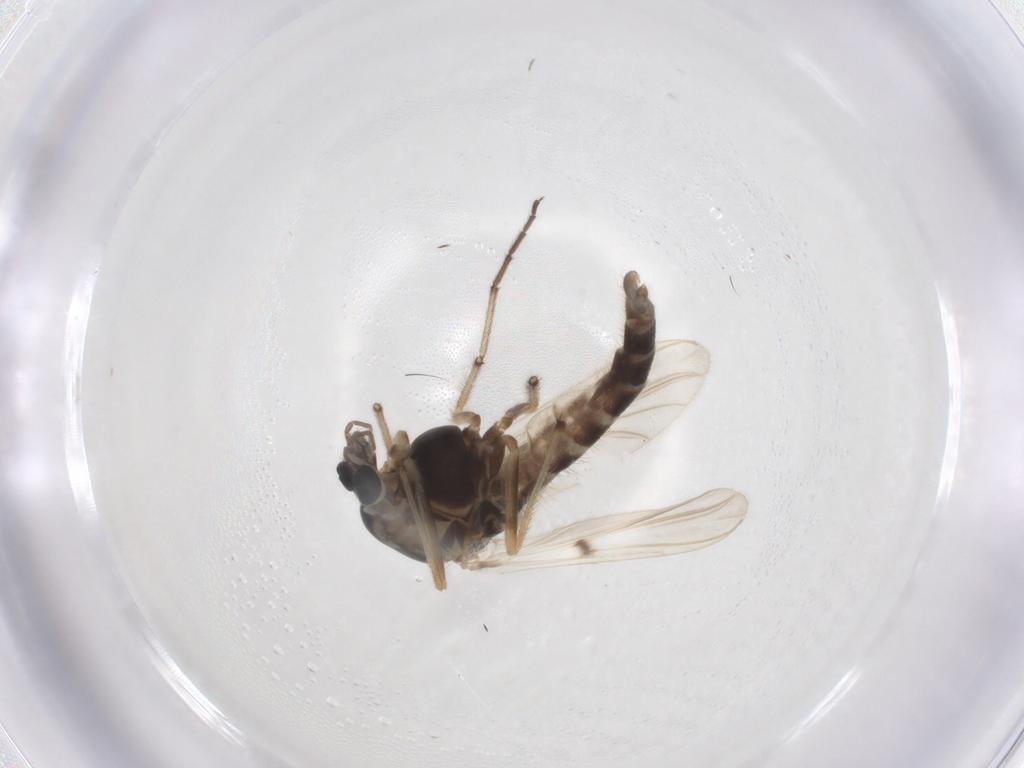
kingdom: Animalia
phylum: Arthropoda
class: Insecta
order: Diptera
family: Chironomidae
